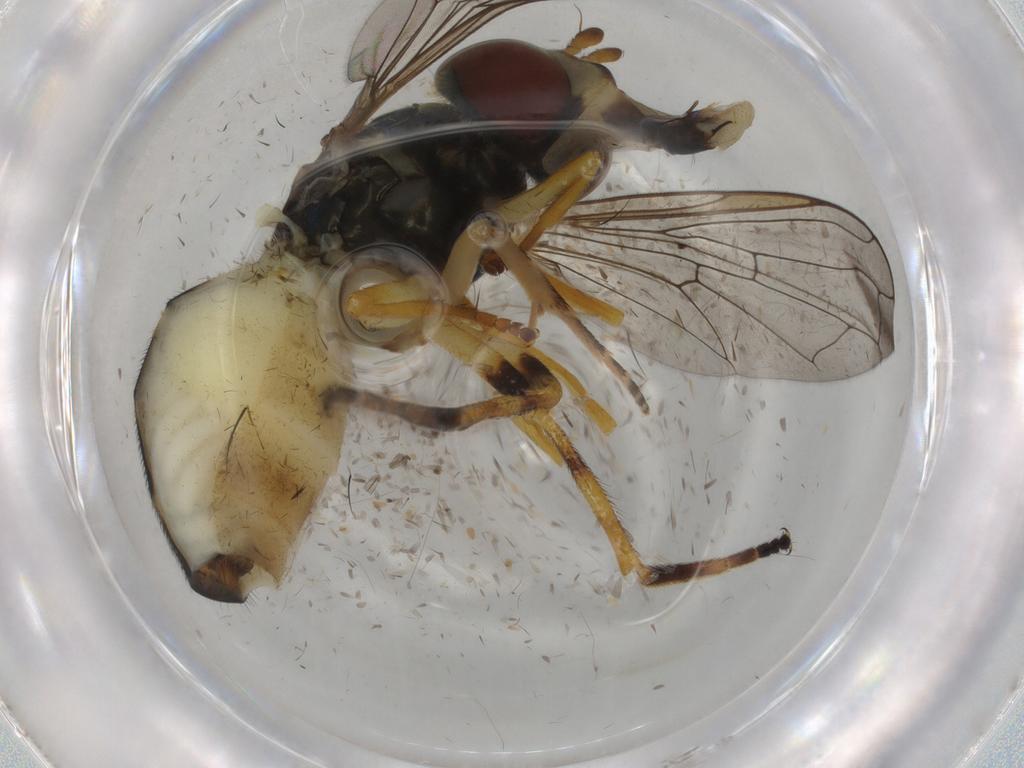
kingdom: Animalia
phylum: Arthropoda
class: Insecta
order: Diptera
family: Syrphidae
